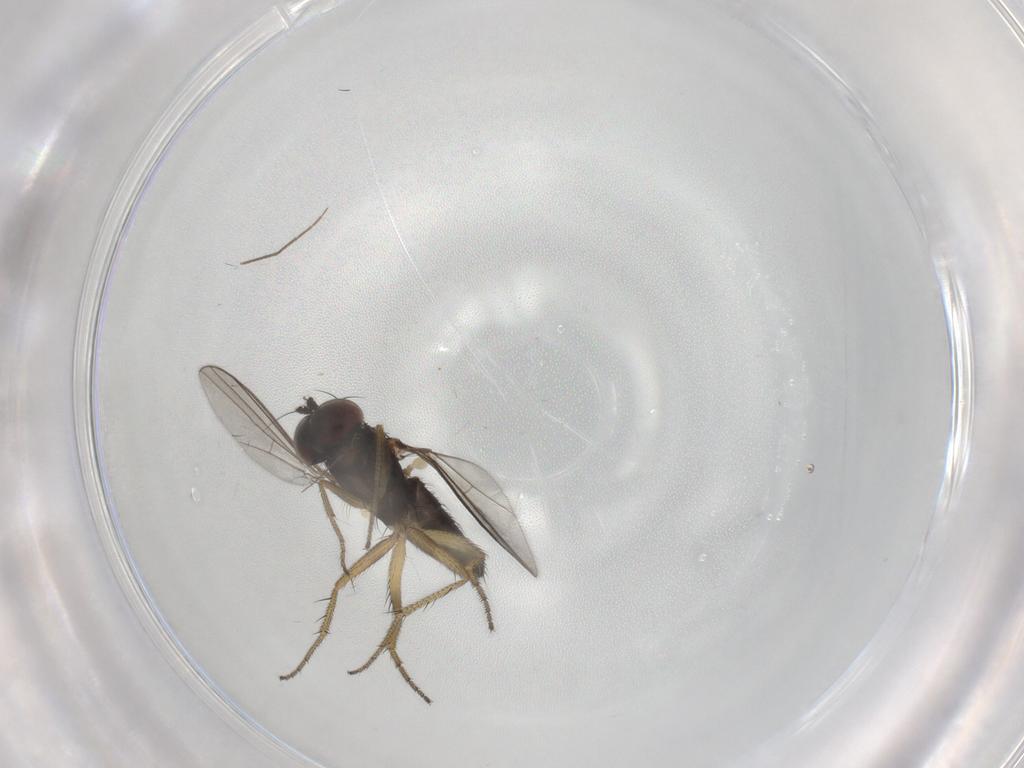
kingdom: Animalia
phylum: Arthropoda
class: Insecta
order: Diptera
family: Dolichopodidae
